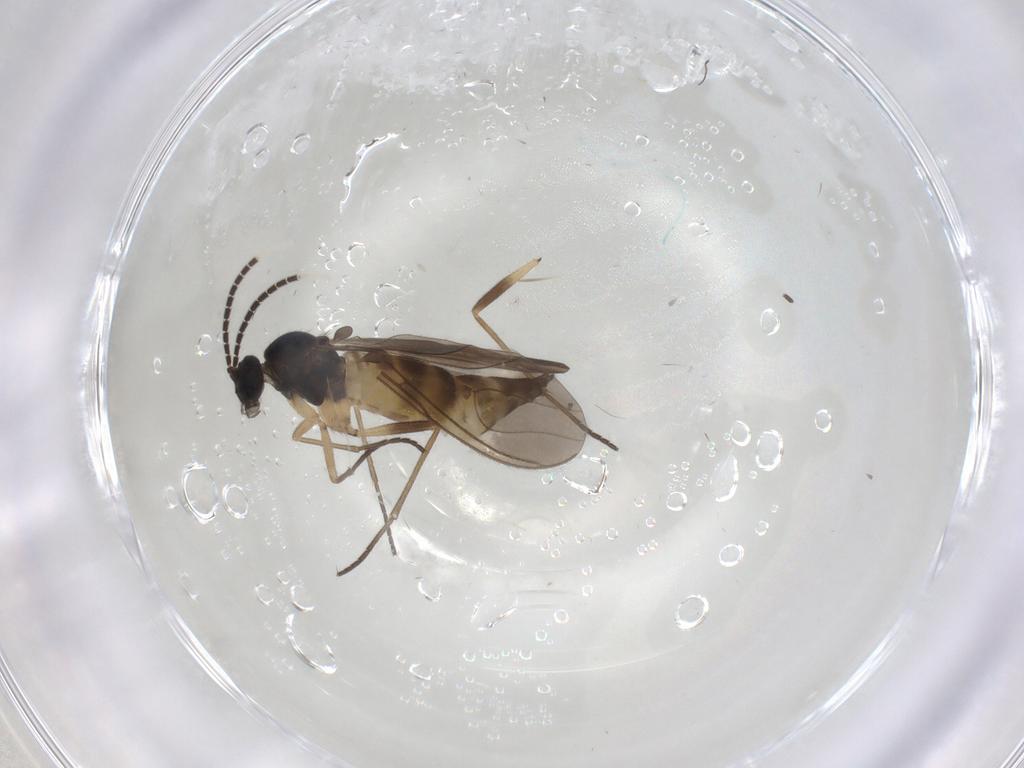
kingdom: Animalia
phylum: Arthropoda
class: Insecta
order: Diptera
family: Sciaridae
